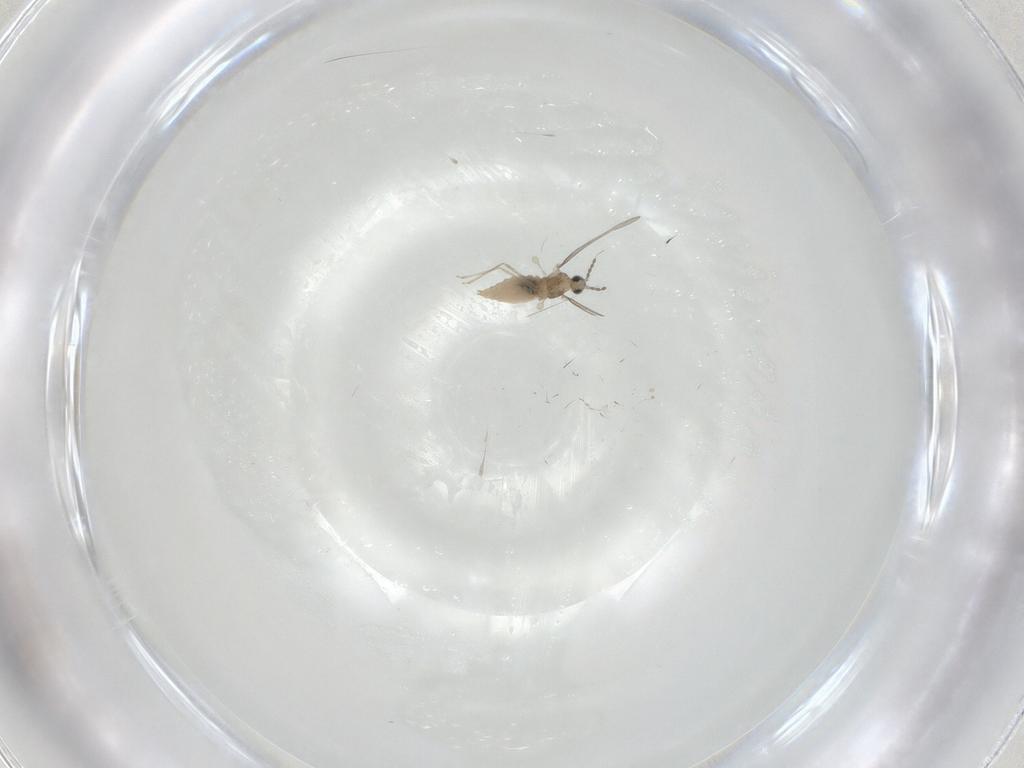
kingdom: Animalia
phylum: Arthropoda
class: Insecta
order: Diptera
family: Cecidomyiidae
